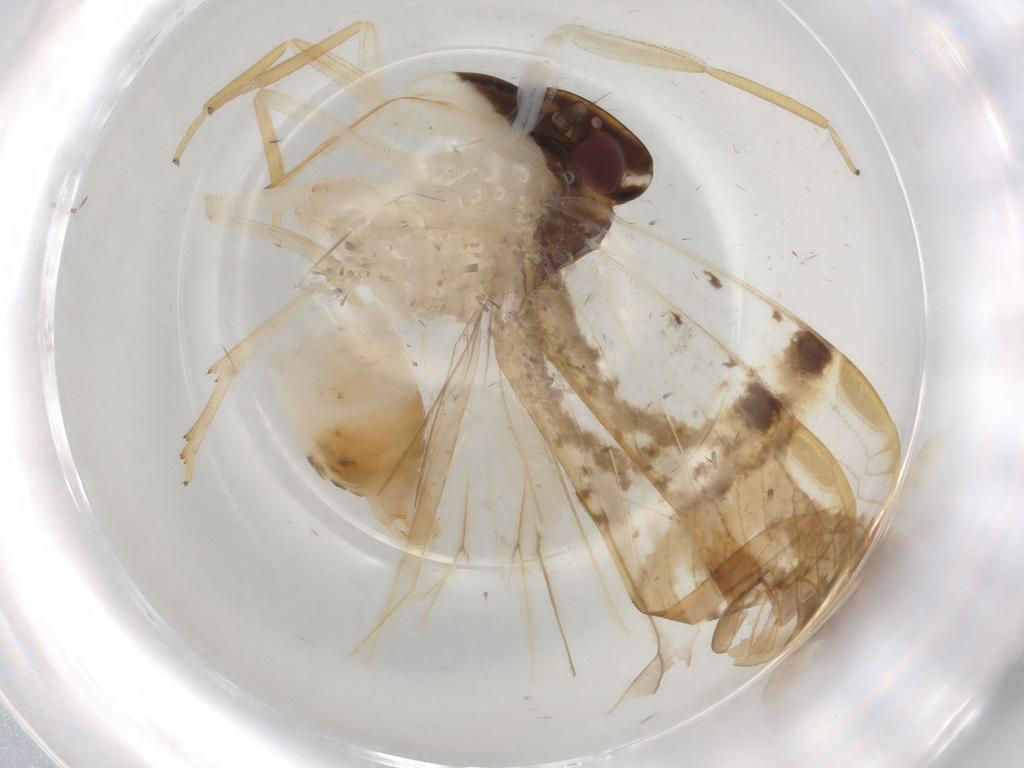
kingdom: Animalia
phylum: Arthropoda
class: Insecta
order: Hemiptera
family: Cixiidae
